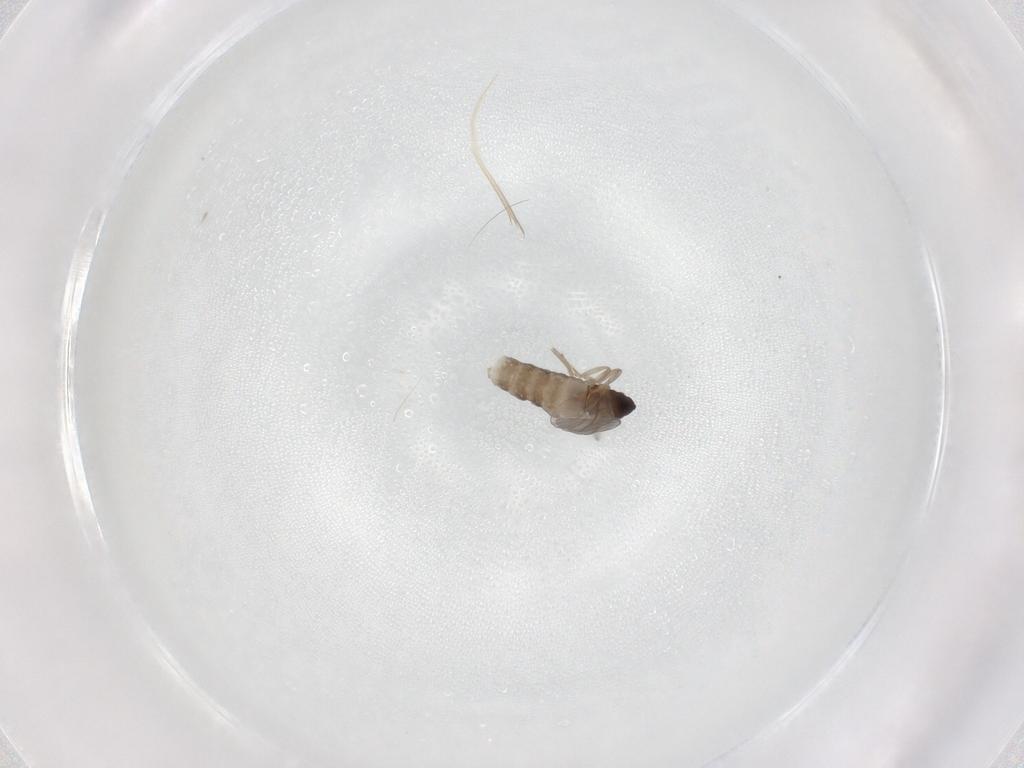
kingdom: Animalia
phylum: Arthropoda
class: Insecta
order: Diptera
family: Cecidomyiidae
